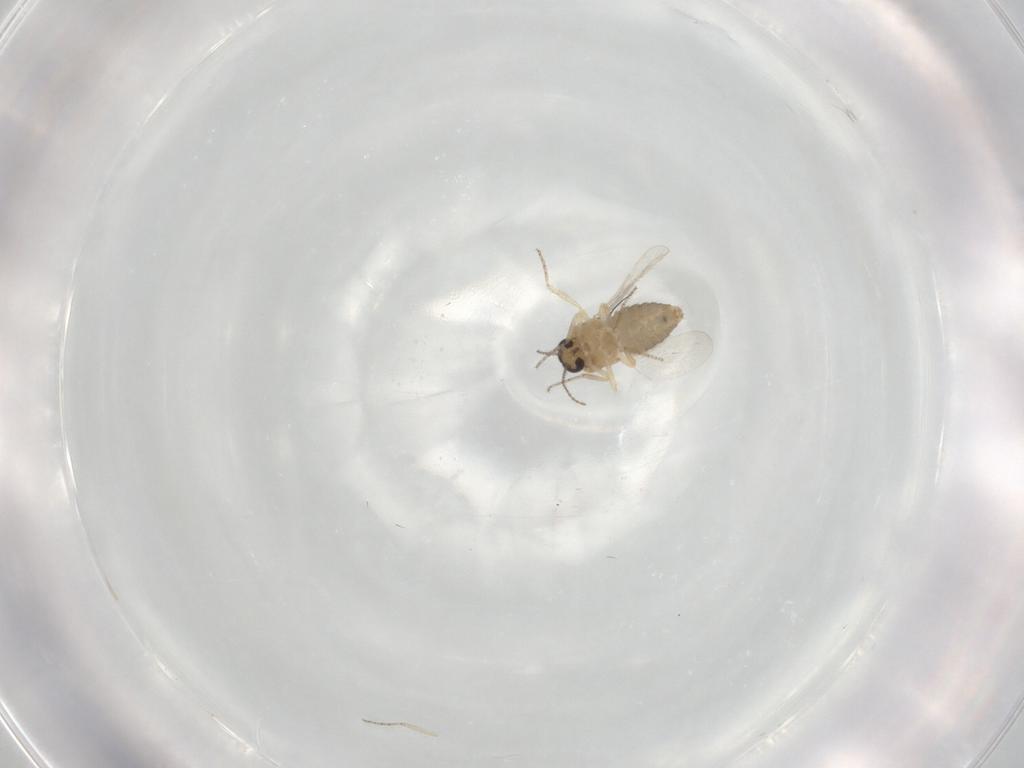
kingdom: Animalia
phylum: Arthropoda
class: Insecta
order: Diptera
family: Ceratopogonidae
